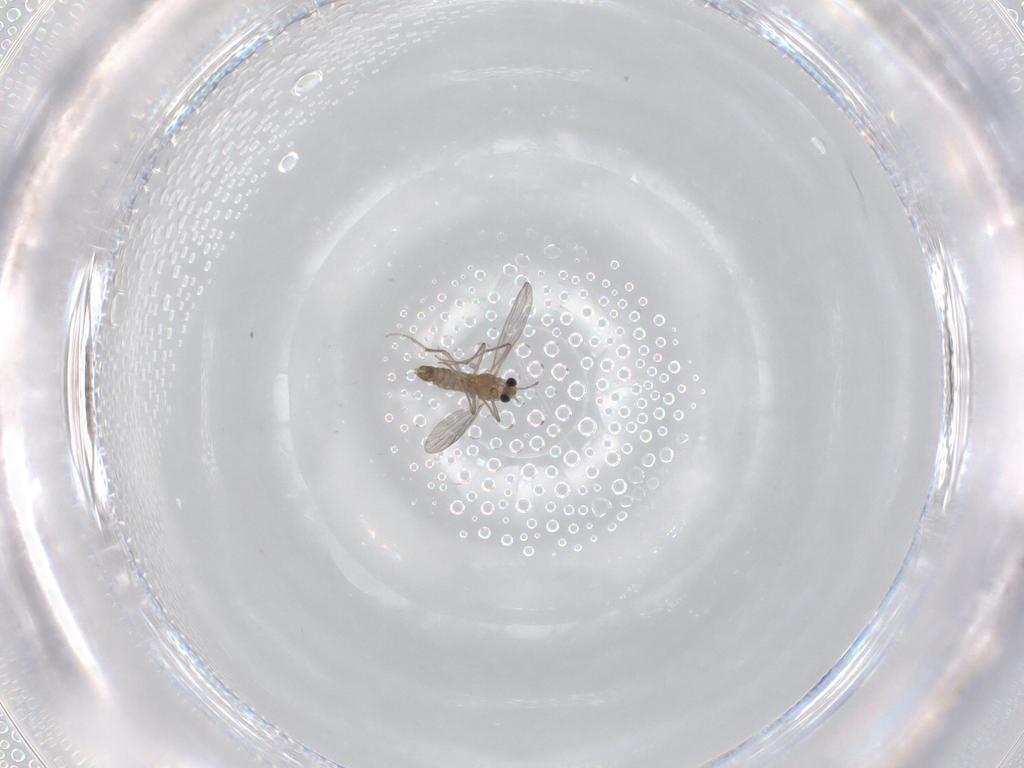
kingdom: Animalia
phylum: Arthropoda
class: Insecta
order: Diptera
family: Chironomidae
